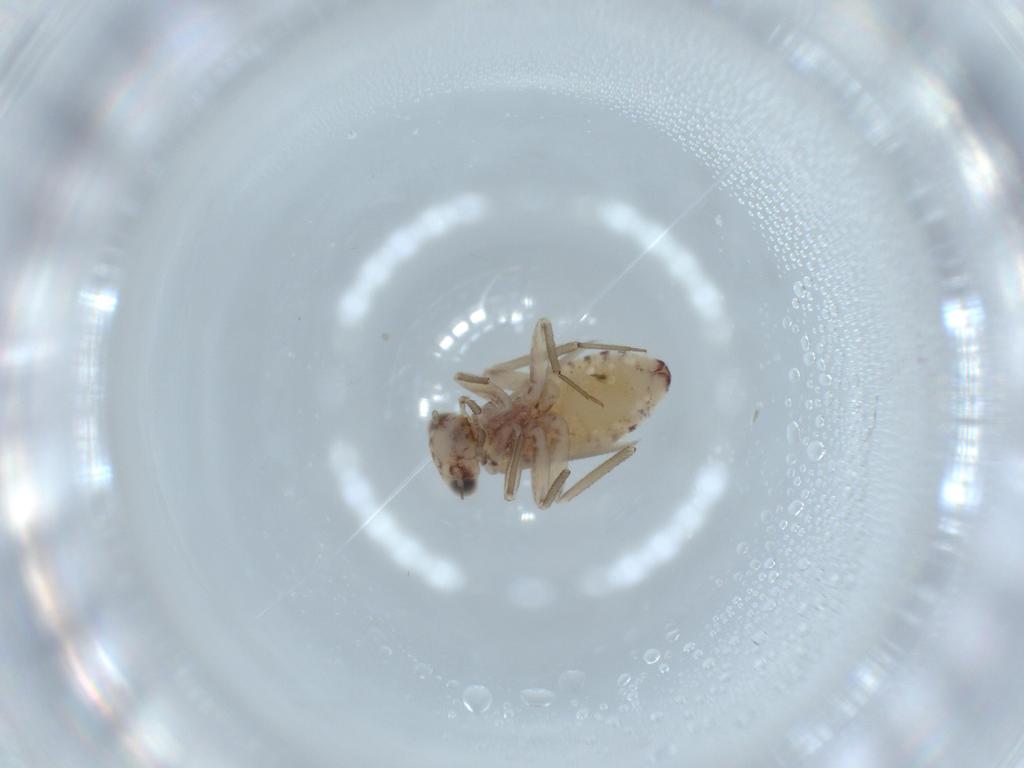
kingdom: Animalia
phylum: Arthropoda
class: Insecta
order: Psocodea
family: Lepidopsocidae
